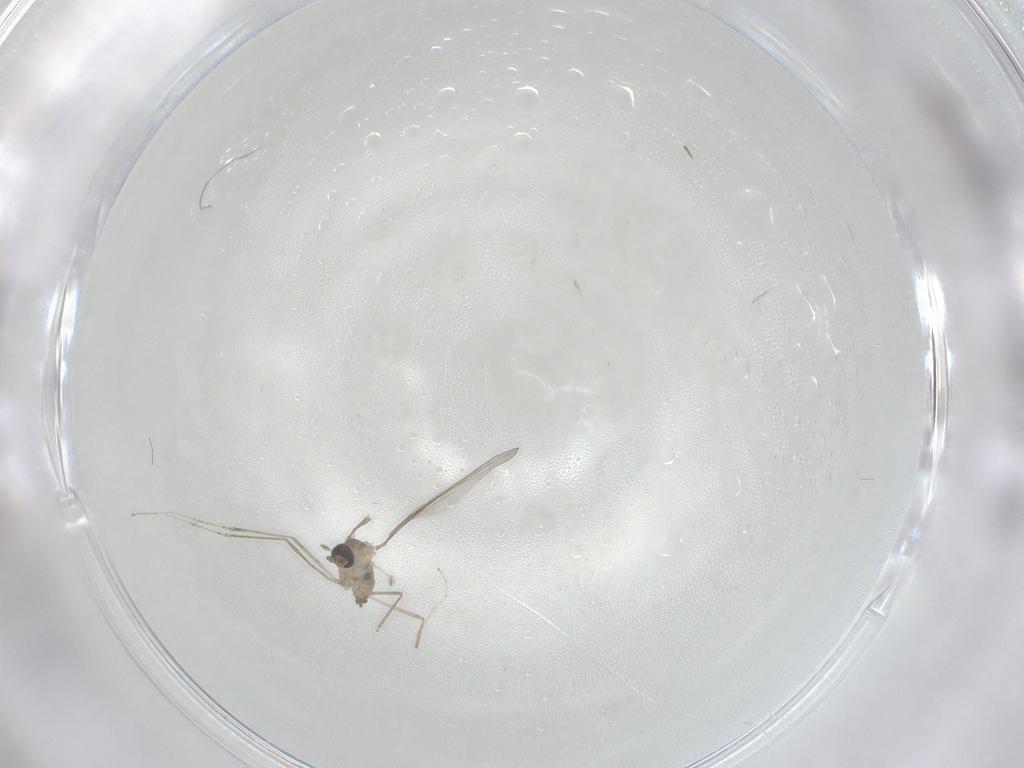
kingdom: Animalia
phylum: Arthropoda
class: Insecta
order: Diptera
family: Cecidomyiidae
